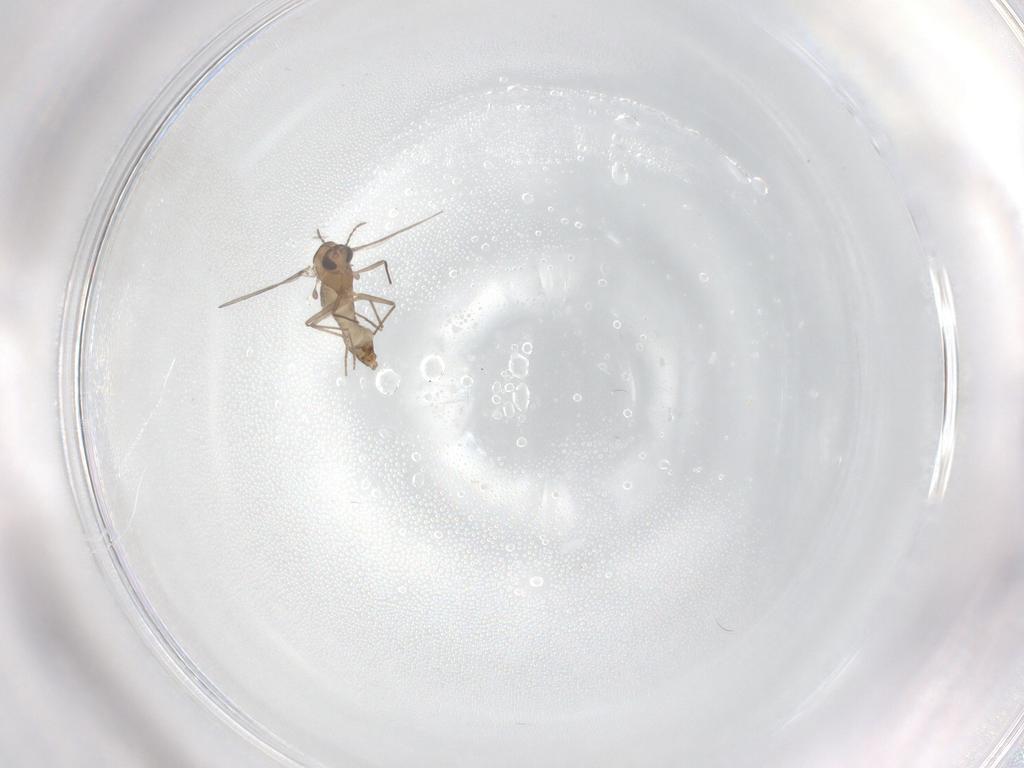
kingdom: Animalia
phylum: Arthropoda
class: Insecta
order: Diptera
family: Chironomidae
